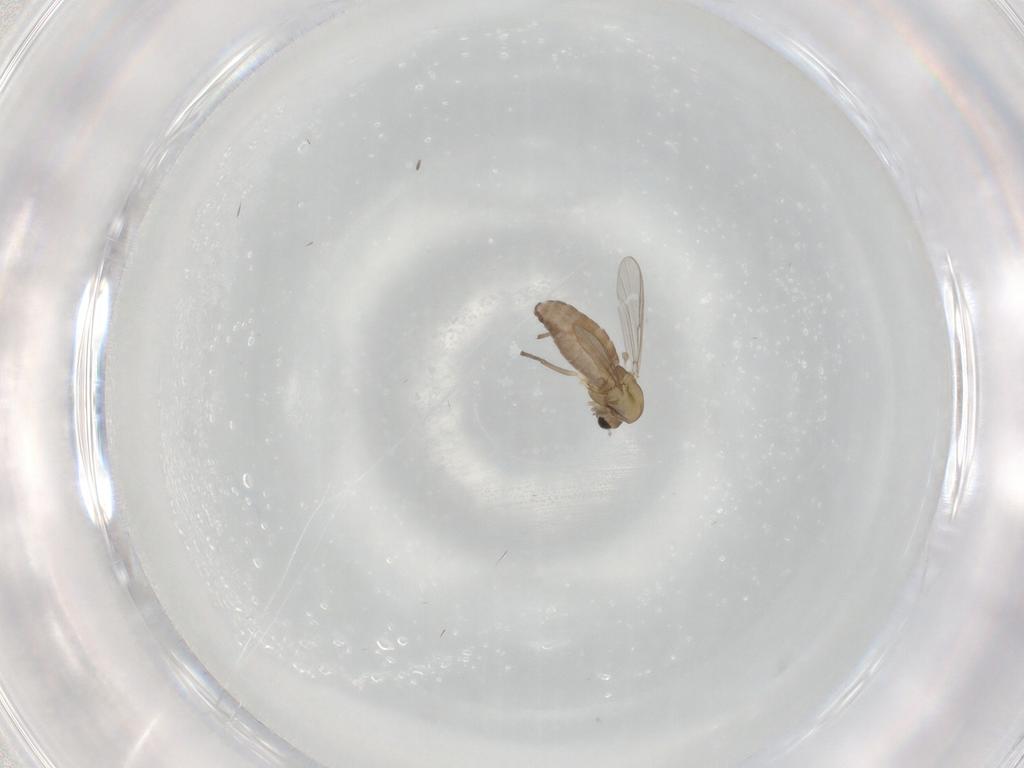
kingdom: Animalia
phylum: Arthropoda
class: Insecta
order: Diptera
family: Chironomidae
